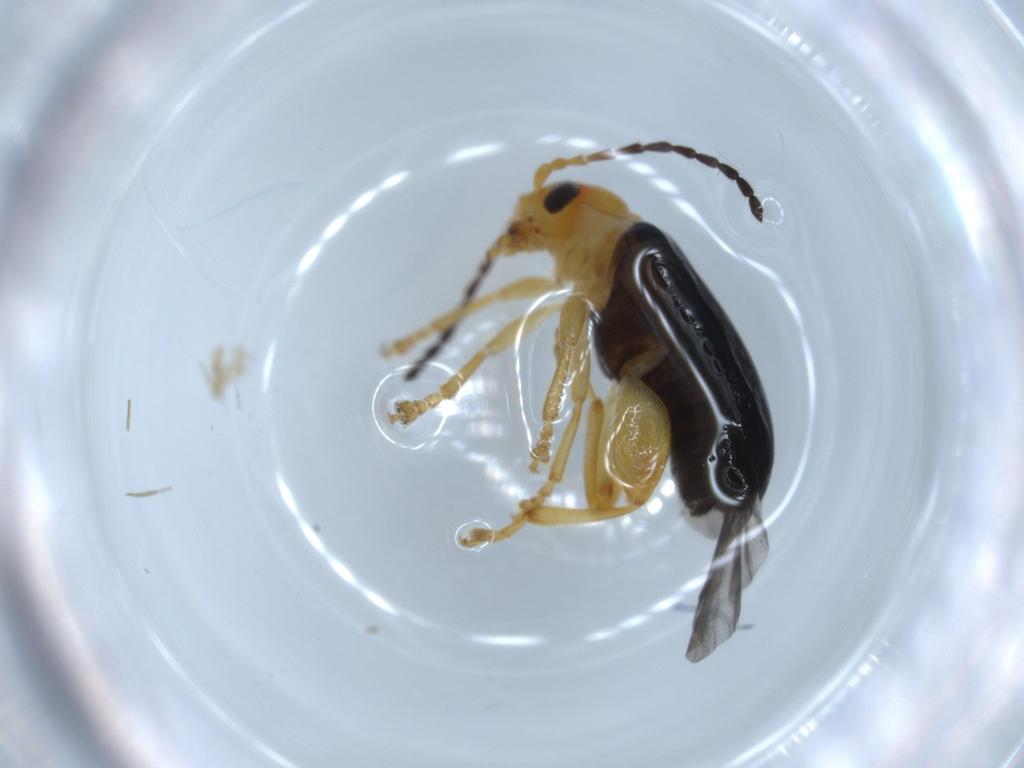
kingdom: Animalia
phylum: Arthropoda
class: Insecta
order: Coleoptera
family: Chrysomelidae
